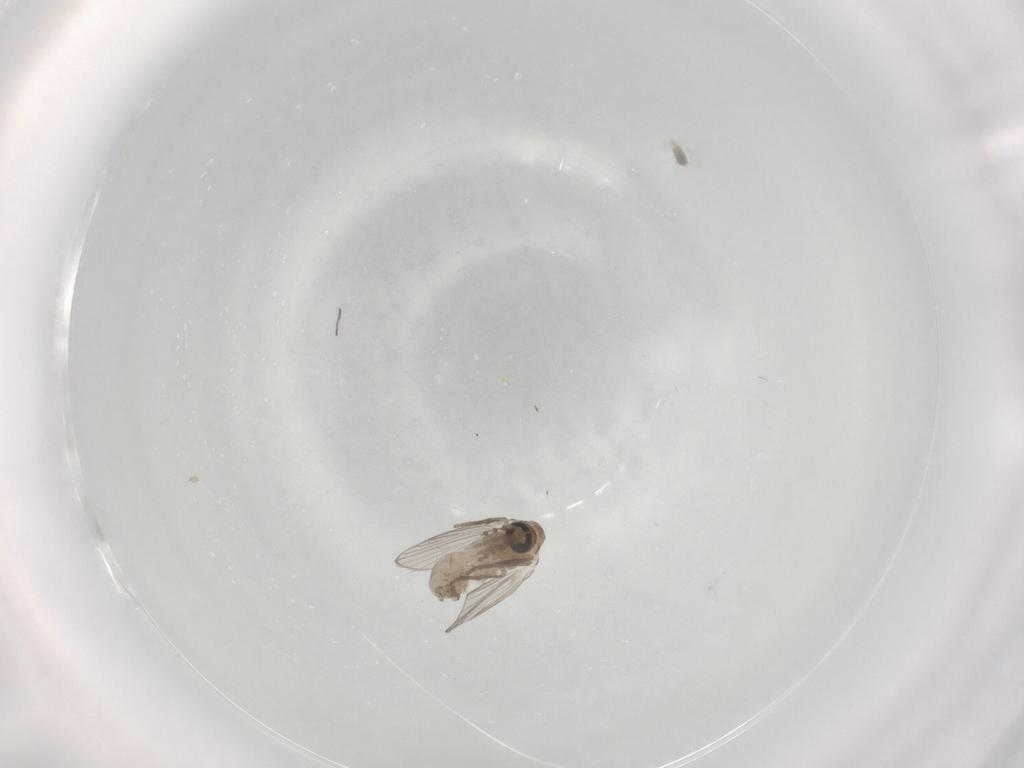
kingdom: Animalia
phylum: Arthropoda
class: Insecta
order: Diptera
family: Psychodidae
